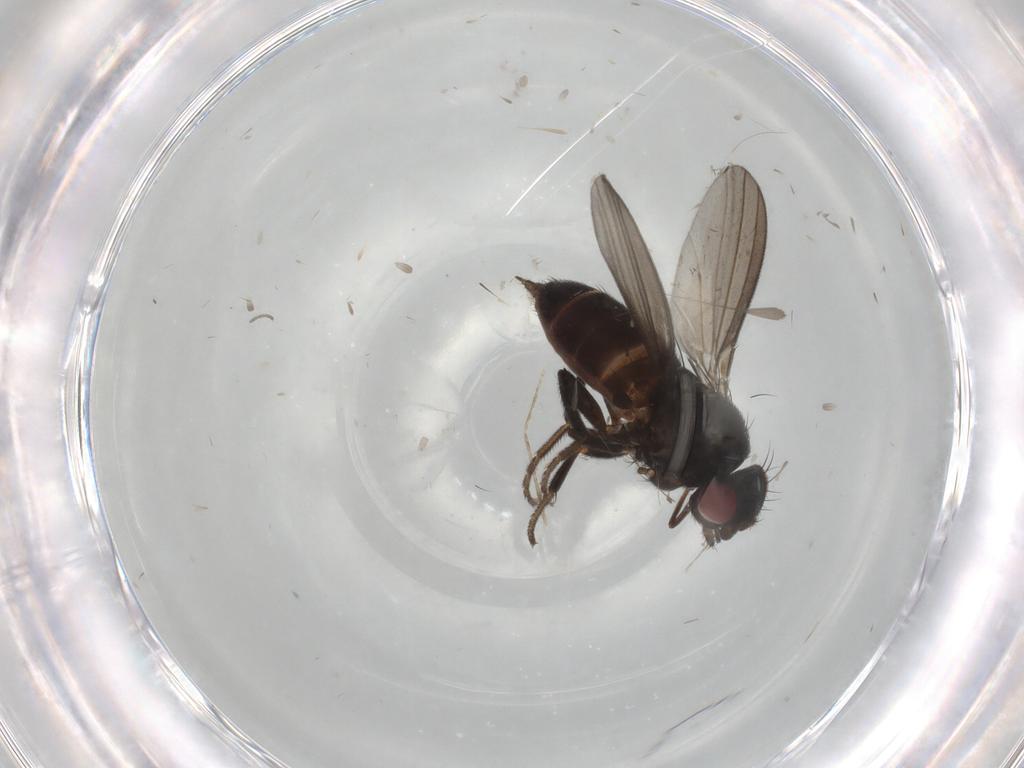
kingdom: Animalia
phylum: Arthropoda
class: Insecta
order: Diptera
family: Milichiidae
